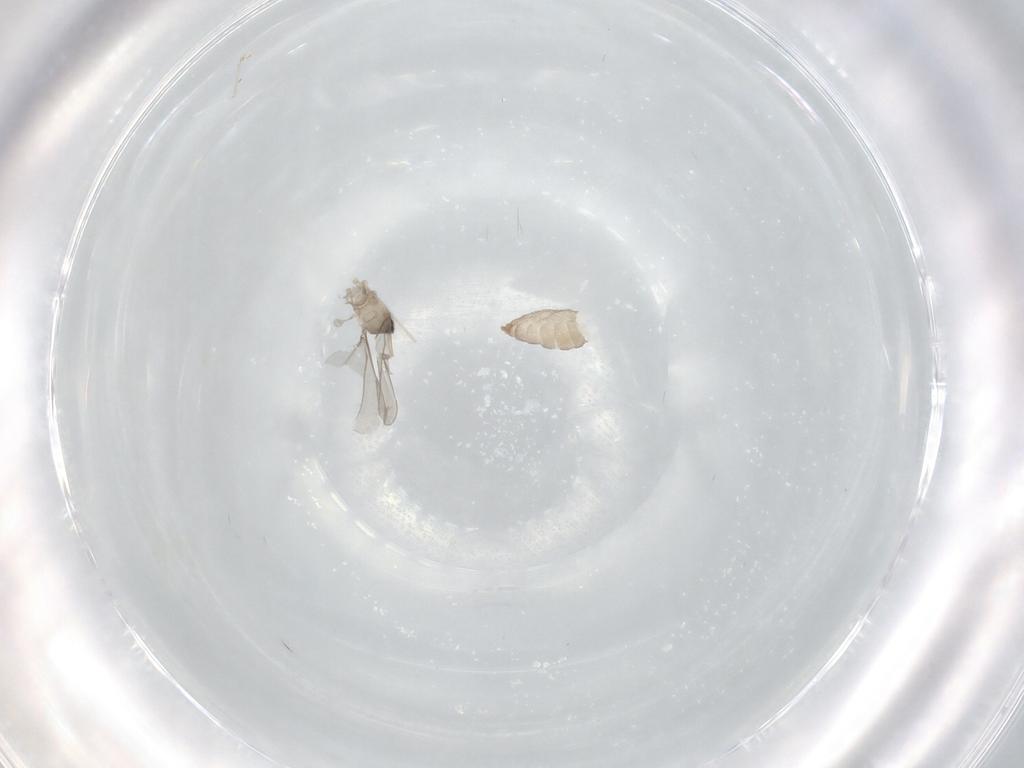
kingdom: Animalia
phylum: Arthropoda
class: Insecta
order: Diptera
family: Cecidomyiidae
